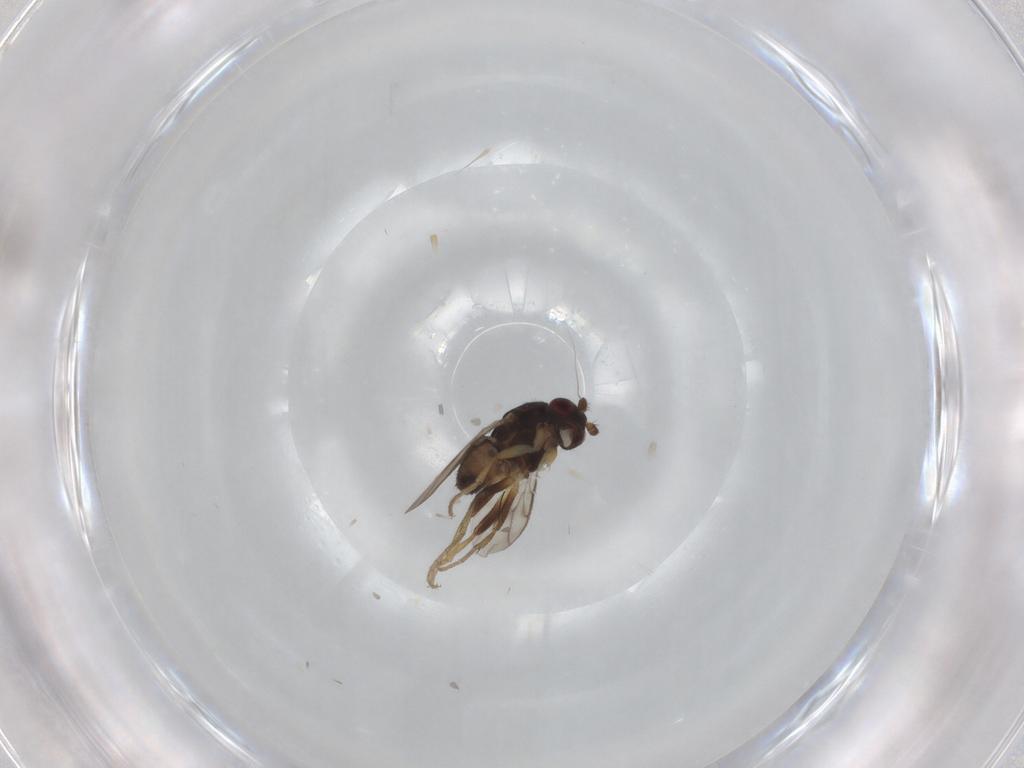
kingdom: Animalia
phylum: Arthropoda
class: Insecta
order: Diptera
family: Sphaeroceridae
